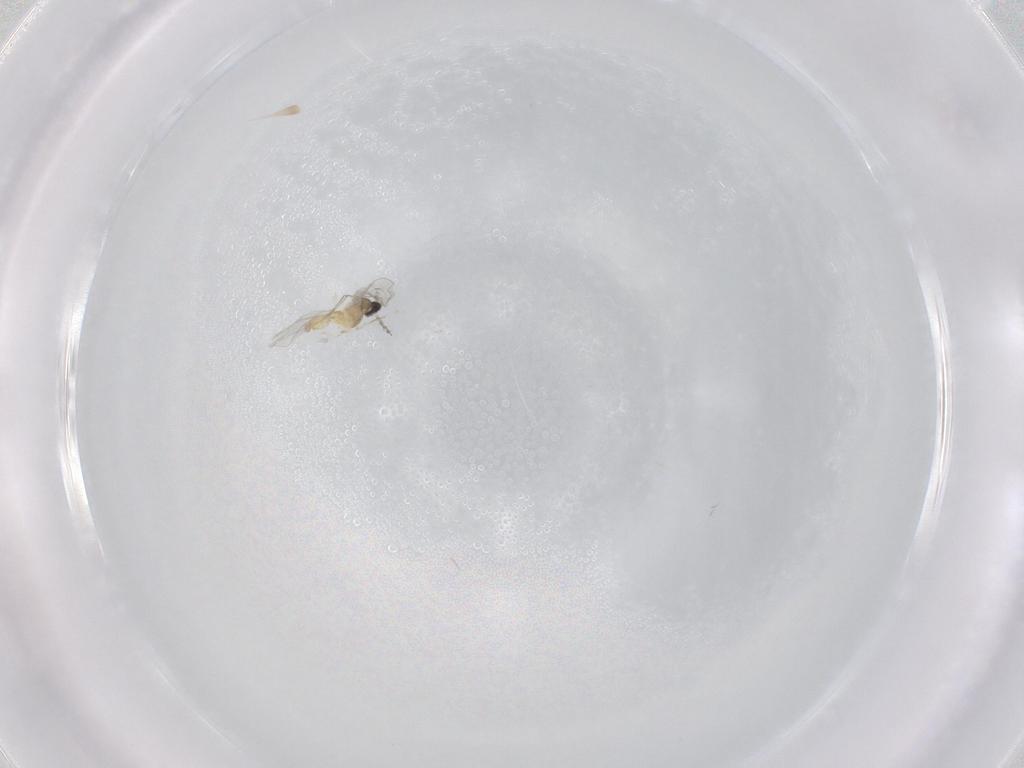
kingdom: Animalia
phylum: Arthropoda
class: Insecta
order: Diptera
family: Cecidomyiidae
